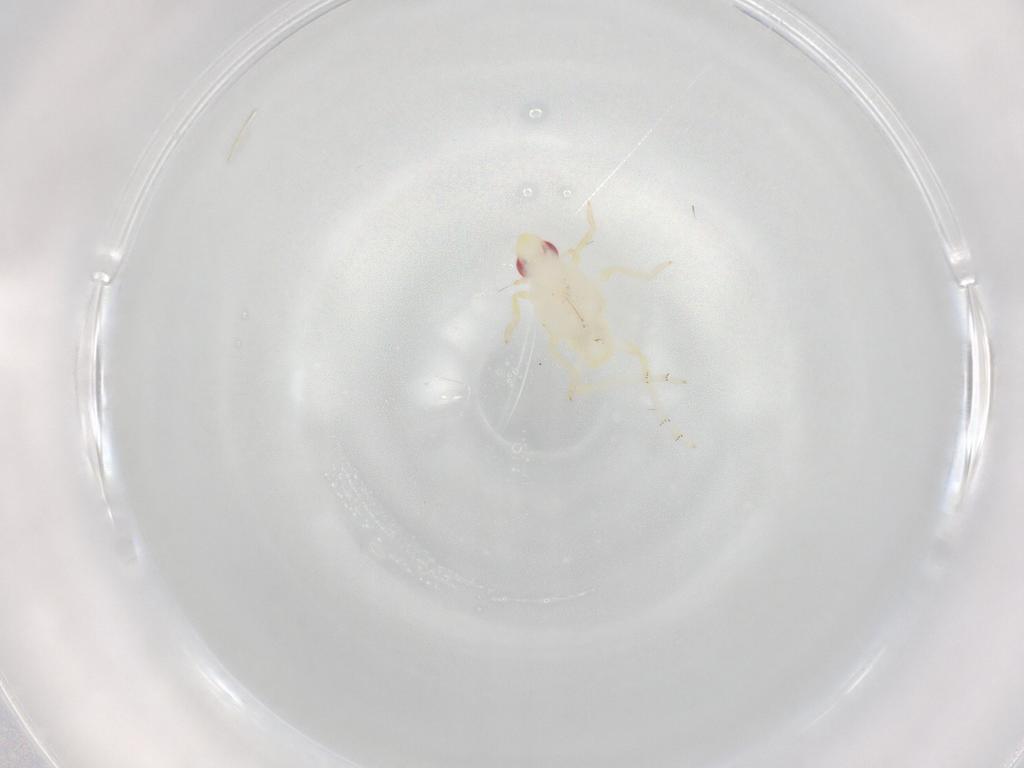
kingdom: Animalia
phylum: Arthropoda
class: Insecta
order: Hemiptera
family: Tropiduchidae
